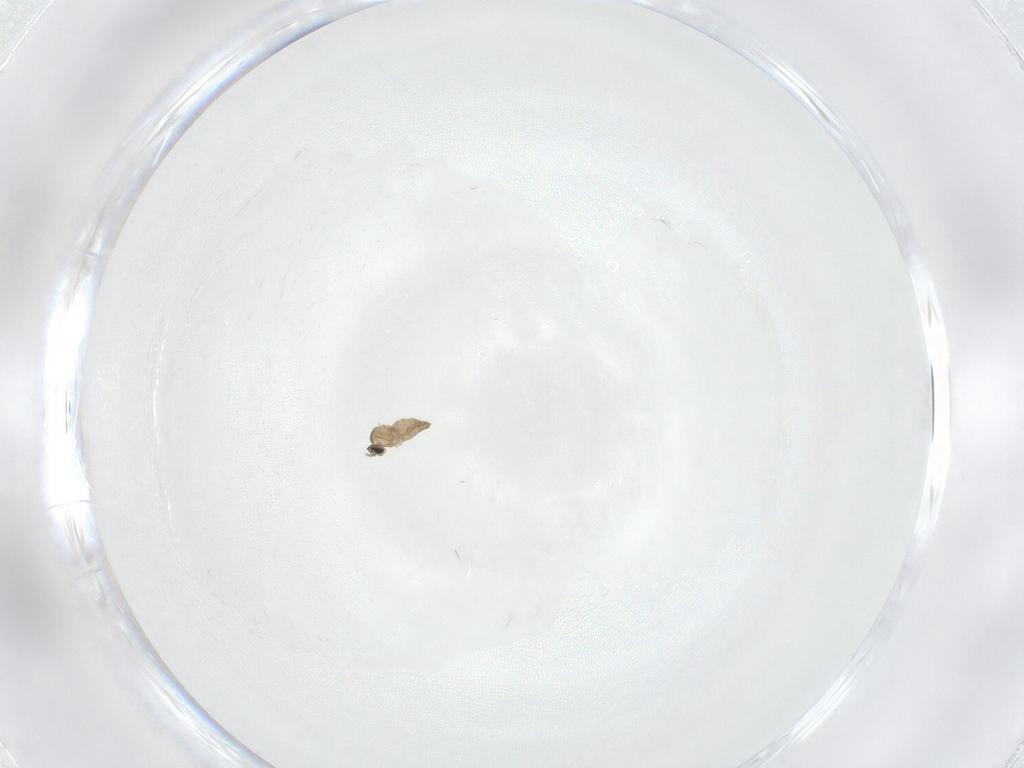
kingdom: Animalia
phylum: Arthropoda
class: Insecta
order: Diptera
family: Cecidomyiidae
